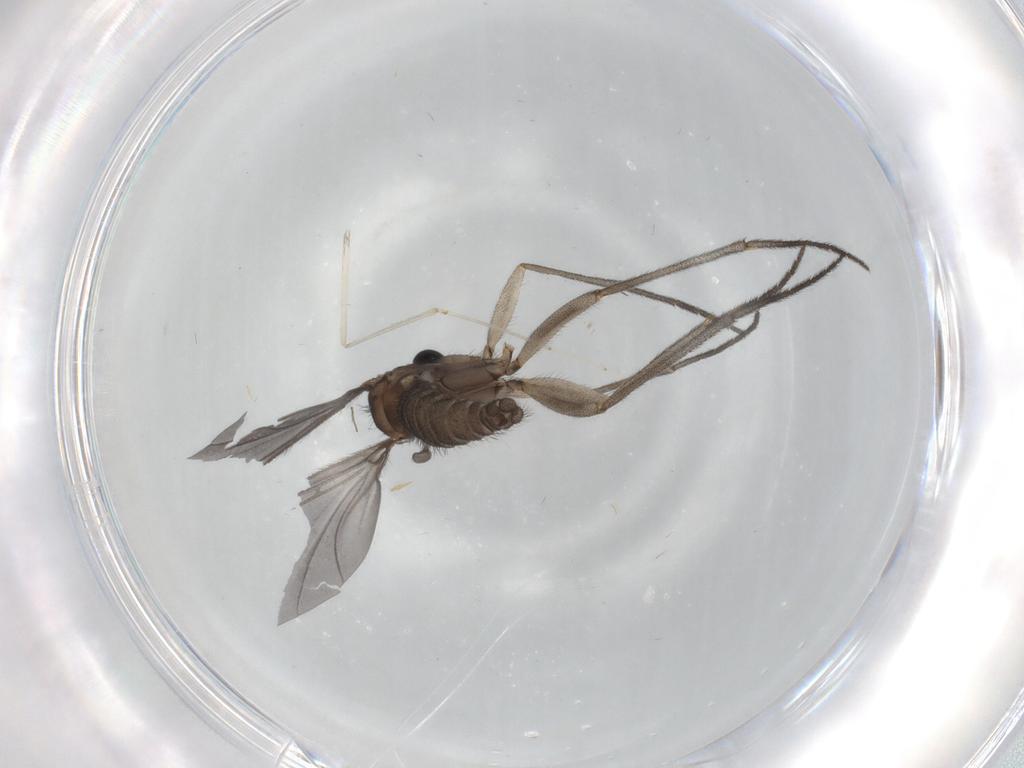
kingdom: Animalia
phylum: Arthropoda
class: Insecta
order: Diptera
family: Sciaridae
